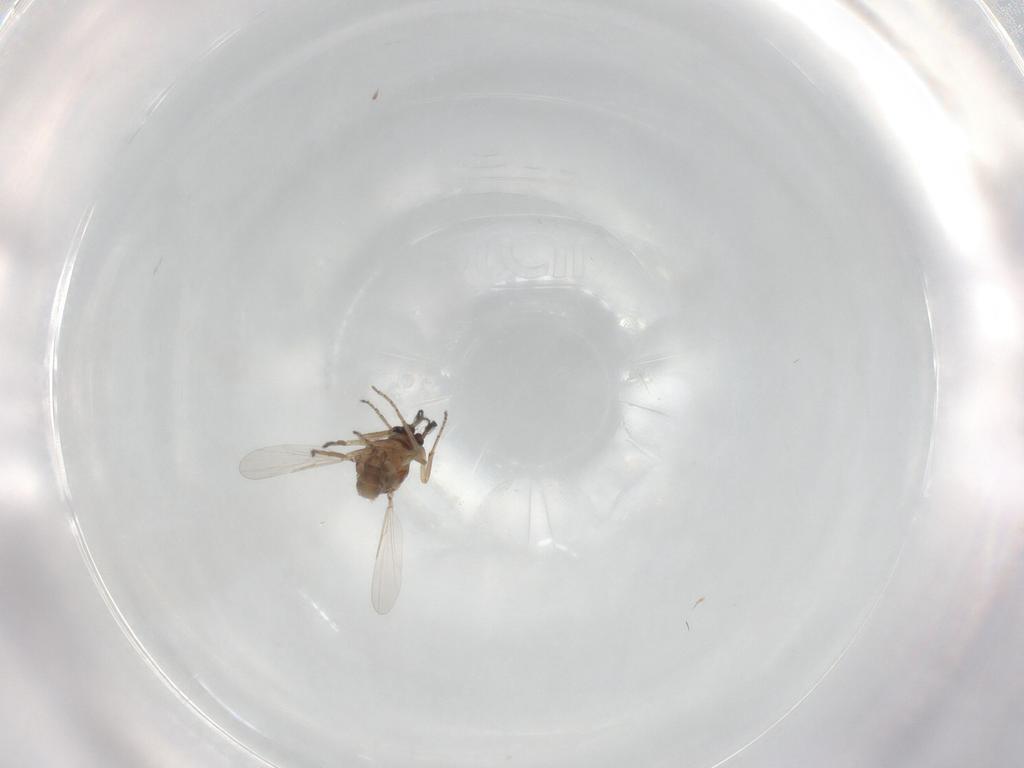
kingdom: Animalia
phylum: Arthropoda
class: Insecta
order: Diptera
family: Ceratopogonidae
